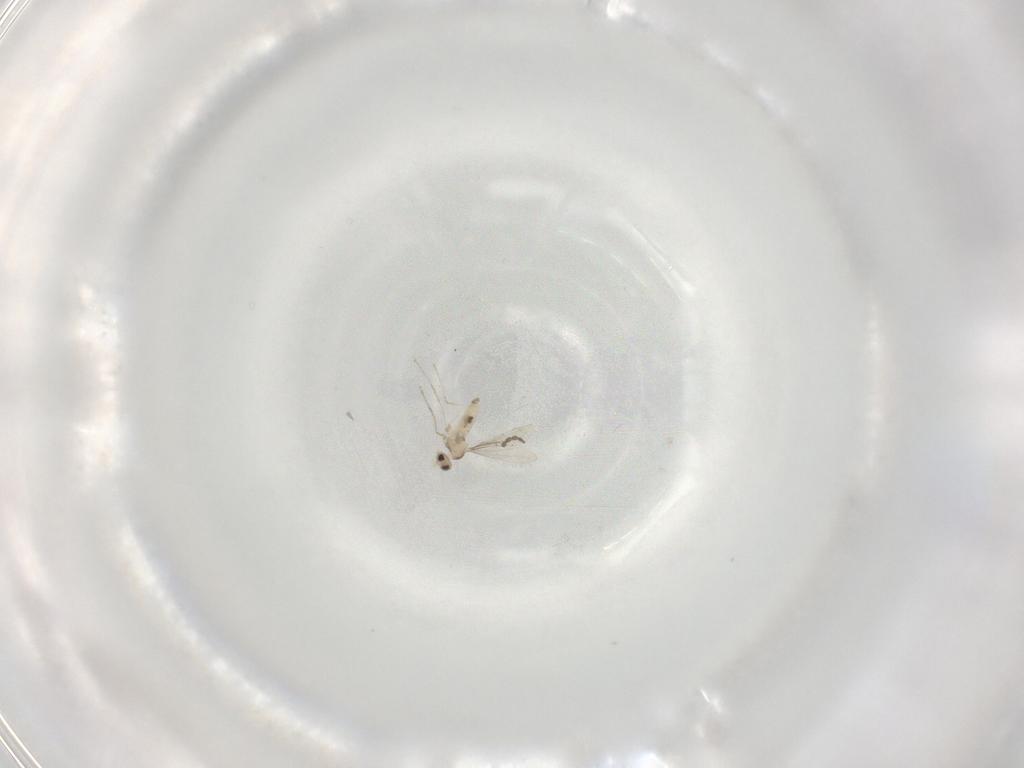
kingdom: Animalia
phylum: Arthropoda
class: Insecta
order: Diptera
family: Cecidomyiidae
